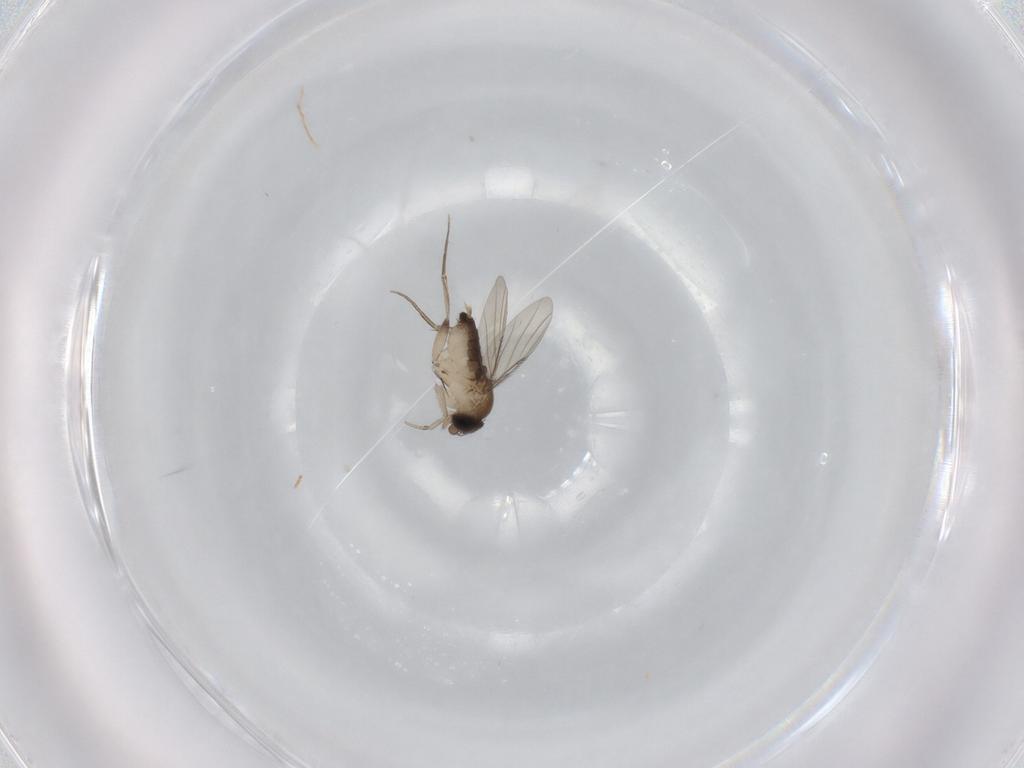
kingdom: Animalia
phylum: Arthropoda
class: Insecta
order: Diptera
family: Phoridae
